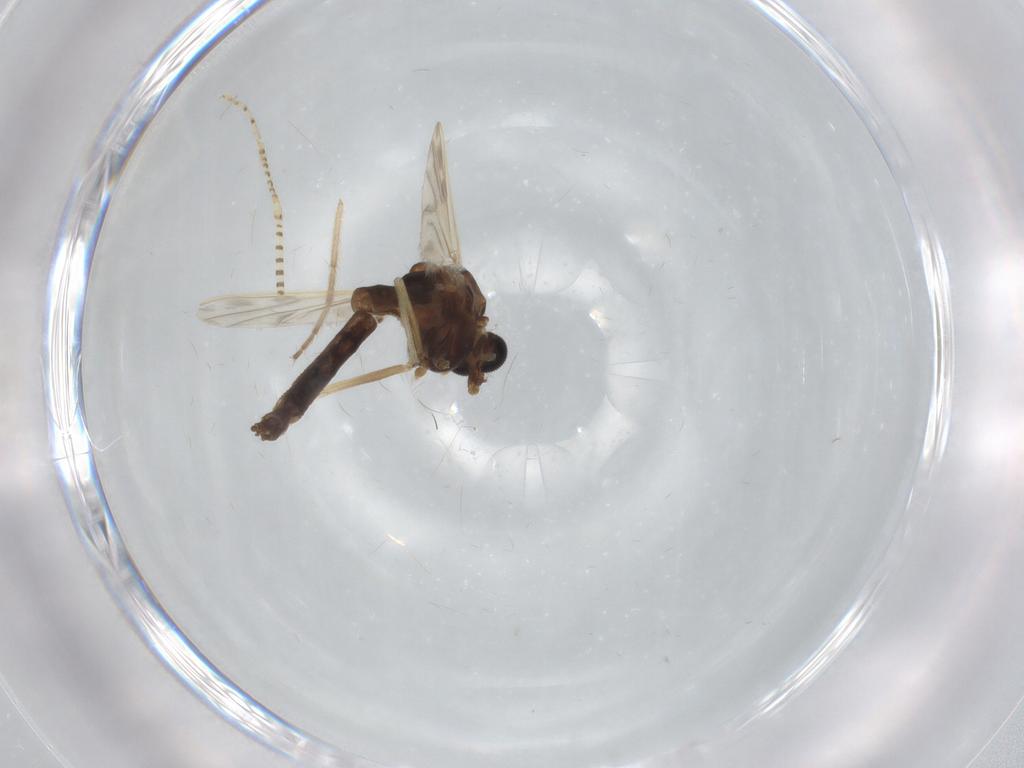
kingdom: Animalia
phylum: Arthropoda
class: Insecta
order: Diptera
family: Chironomidae
